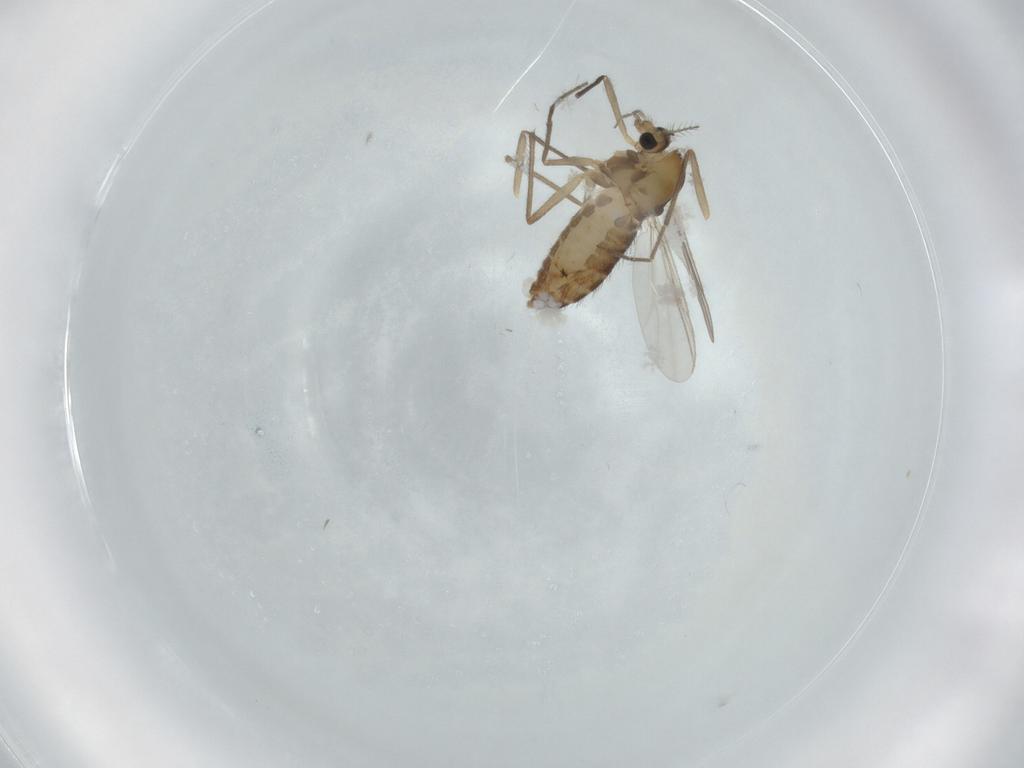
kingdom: Animalia
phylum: Arthropoda
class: Insecta
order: Diptera
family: Chironomidae
